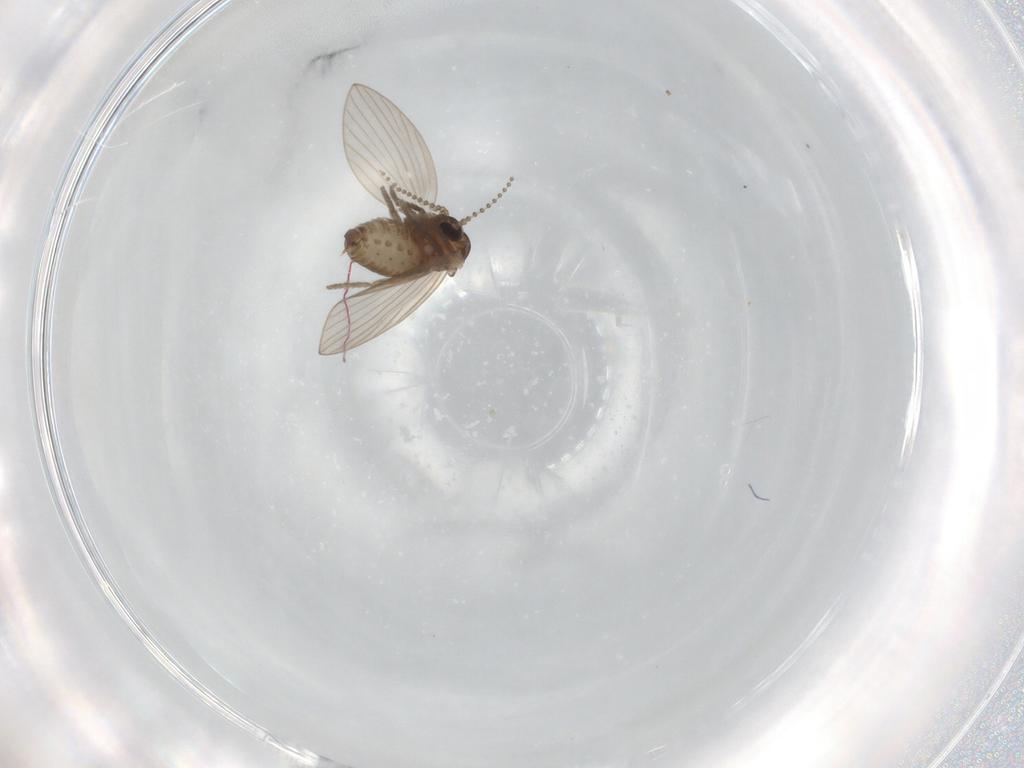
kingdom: Animalia
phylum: Arthropoda
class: Insecta
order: Diptera
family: Psychodidae
